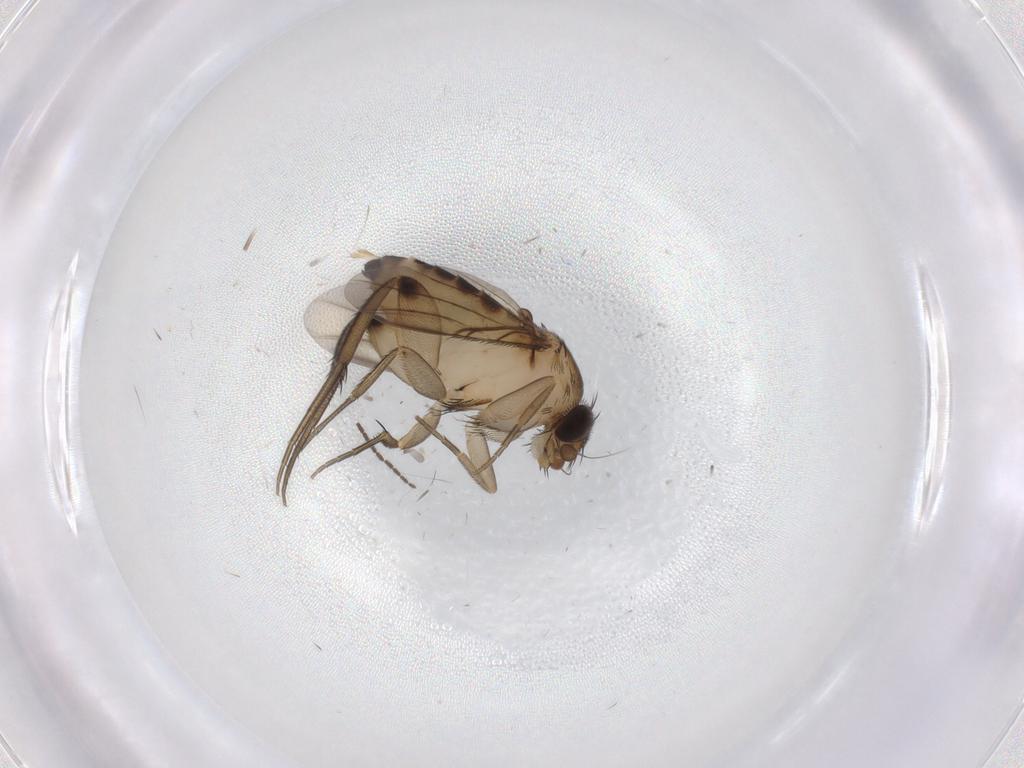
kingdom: Animalia
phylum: Arthropoda
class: Insecta
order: Diptera
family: Phoridae
